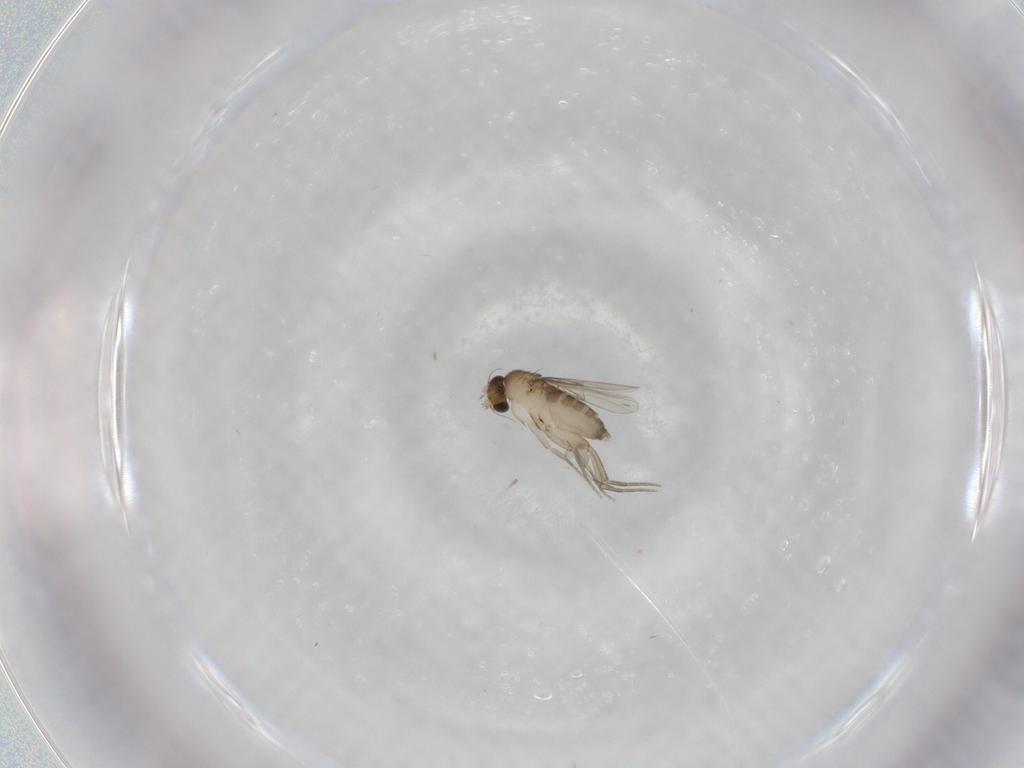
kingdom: Animalia
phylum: Arthropoda
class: Insecta
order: Diptera
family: Phoridae
